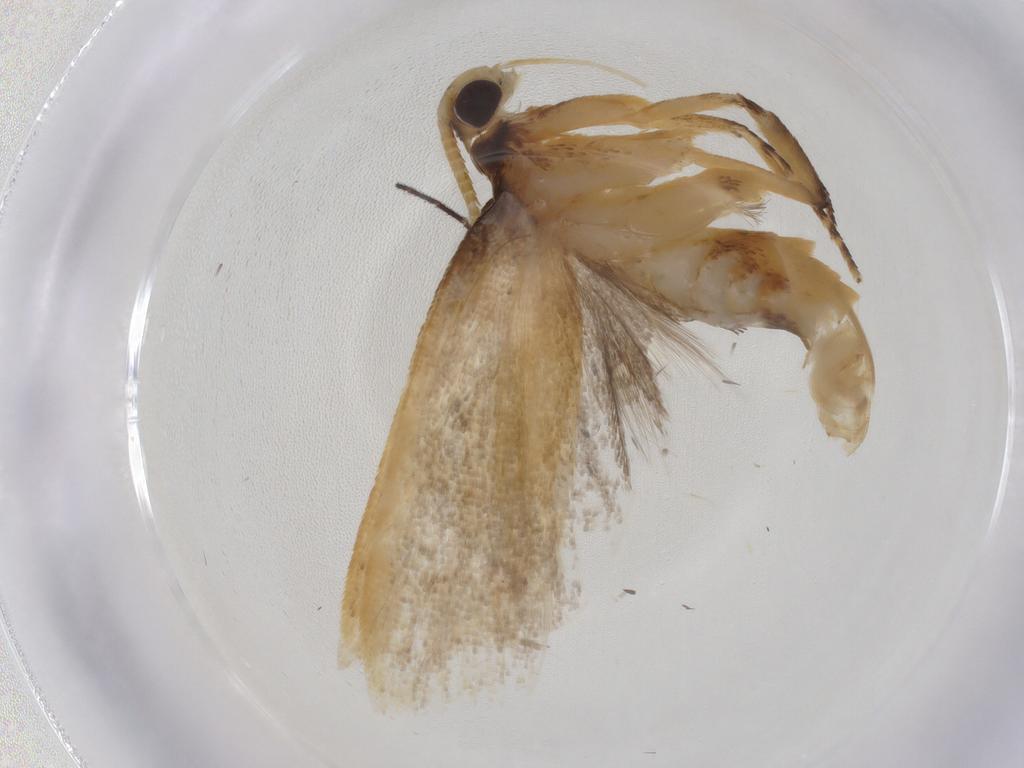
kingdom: Animalia
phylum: Arthropoda
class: Insecta
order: Lepidoptera
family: Lecithoceridae
